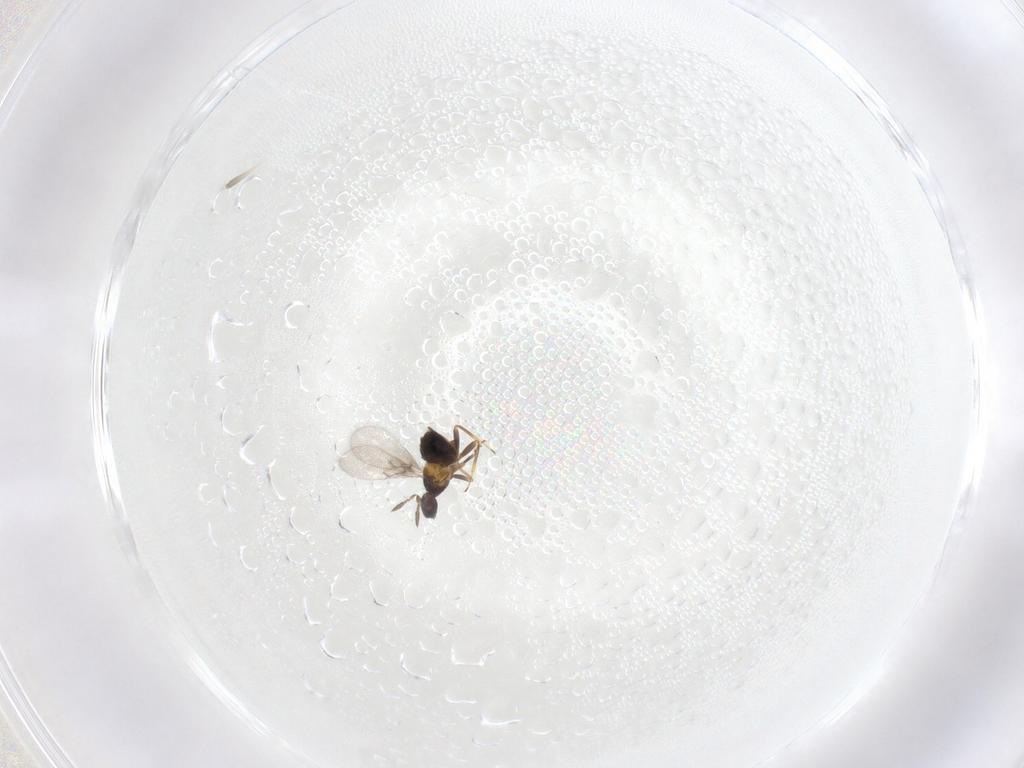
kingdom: Animalia
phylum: Arthropoda
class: Insecta
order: Hymenoptera
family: Trichogrammatidae
